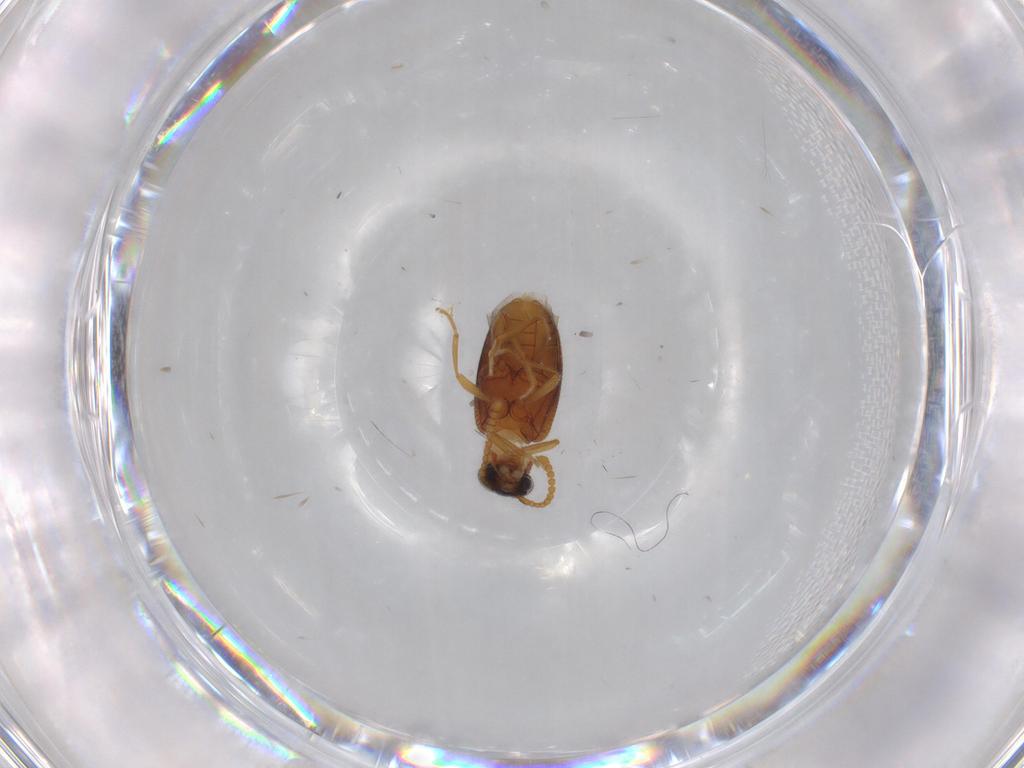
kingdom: Animalia
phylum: Arthropoda
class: Insecta
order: Coleoptera
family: Aderidae
